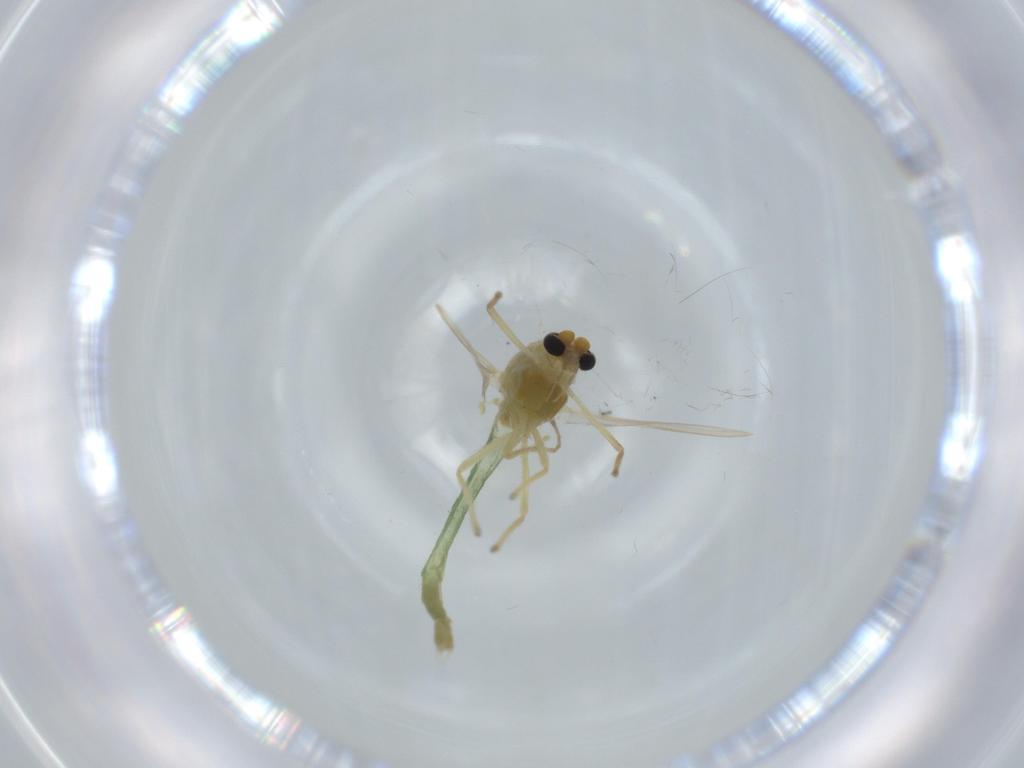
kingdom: Animalia
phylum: Arthropoda
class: Insecta
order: Diptera
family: Chironomidae
